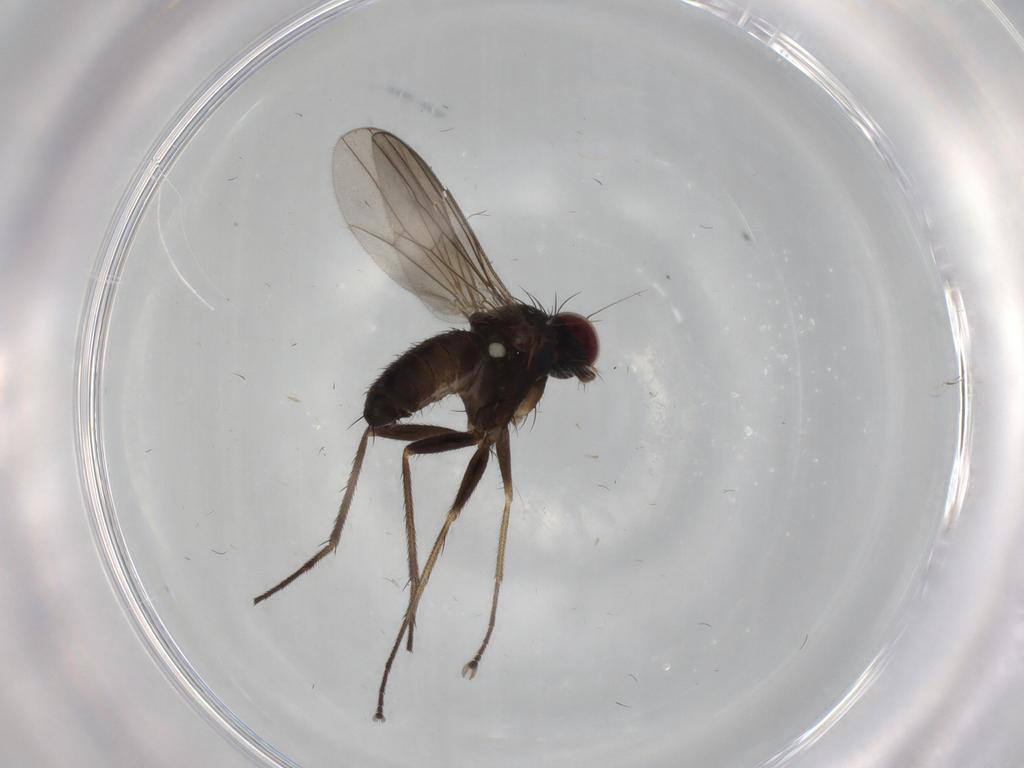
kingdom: Animalia
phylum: Arthropoda
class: Insecta
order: Diptera
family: Dolichopodidae
